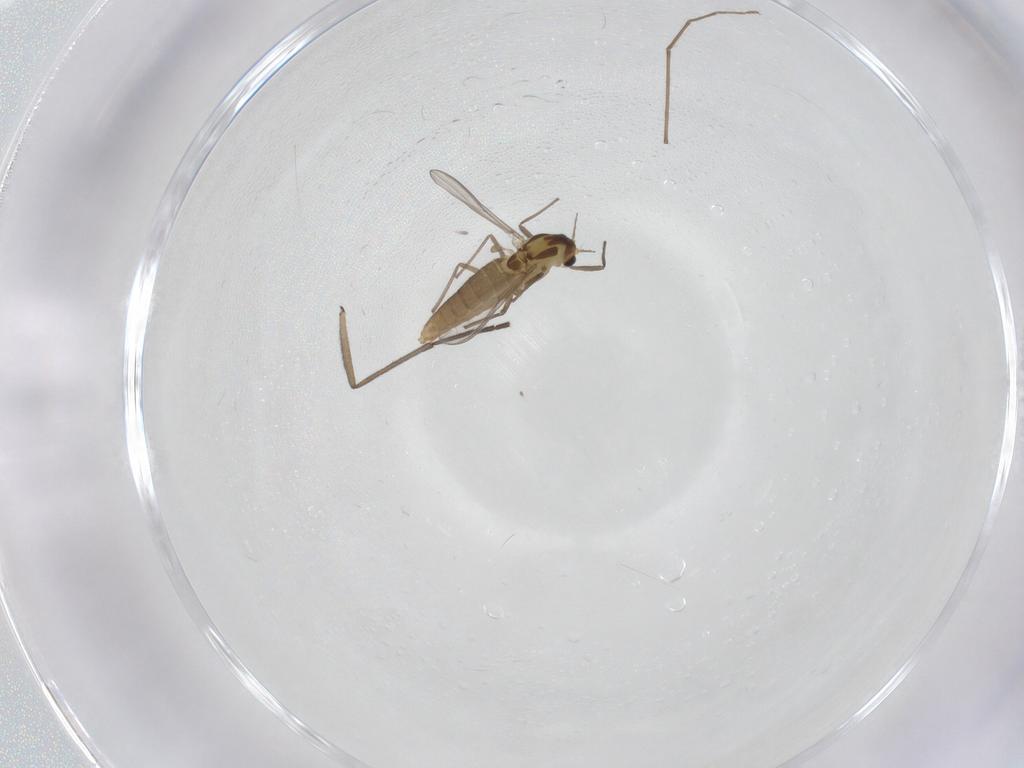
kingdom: Animalia
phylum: Arthropoda
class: Insecta
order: Diptera
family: Chironomidae
